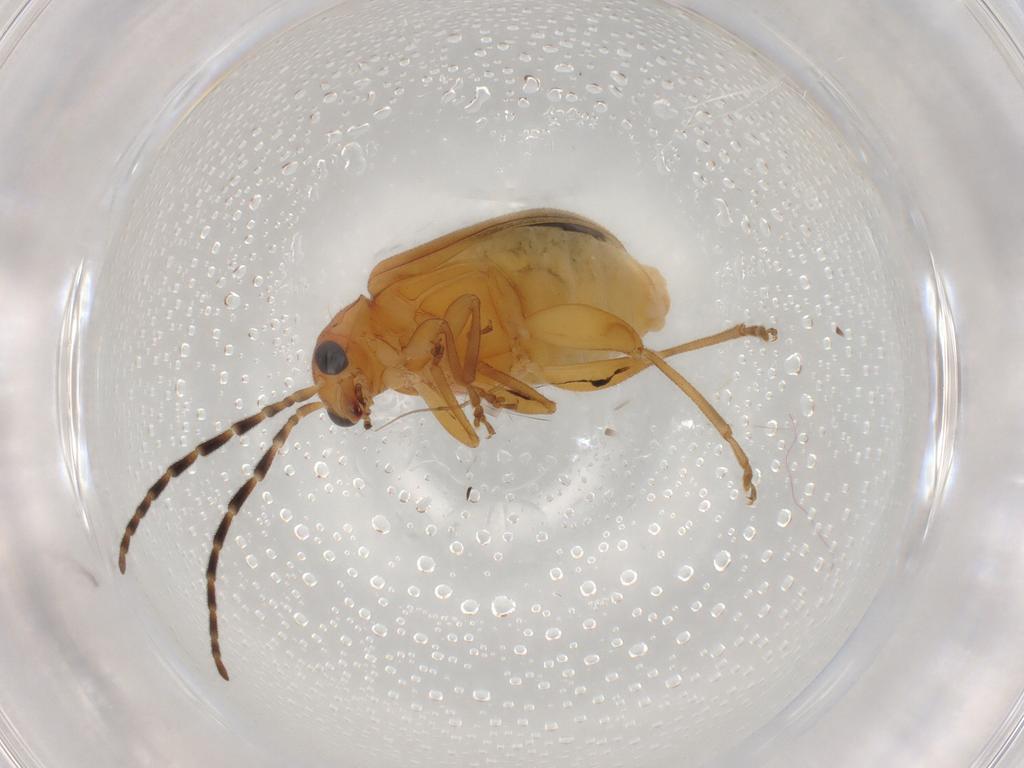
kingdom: Animalia
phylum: Arthropoda
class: Insecta
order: Coleoptera
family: Chrysomelidae
